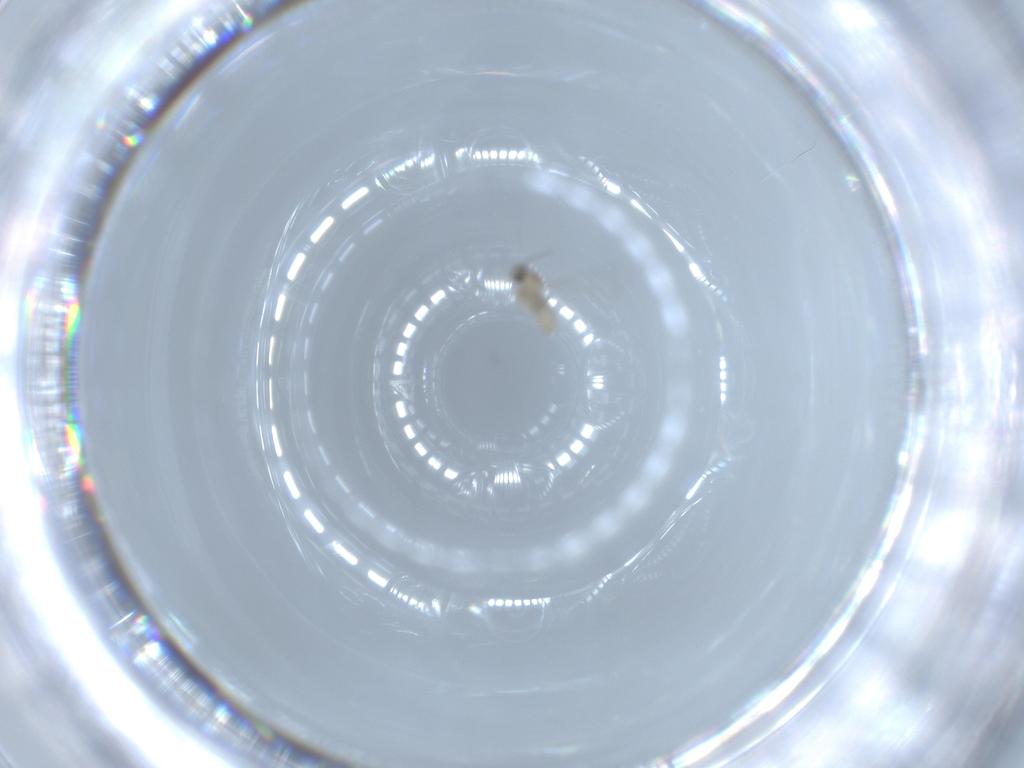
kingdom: Animalia
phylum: Arthropoda
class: Insecta
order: Diptera
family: Cecidomyiidae
